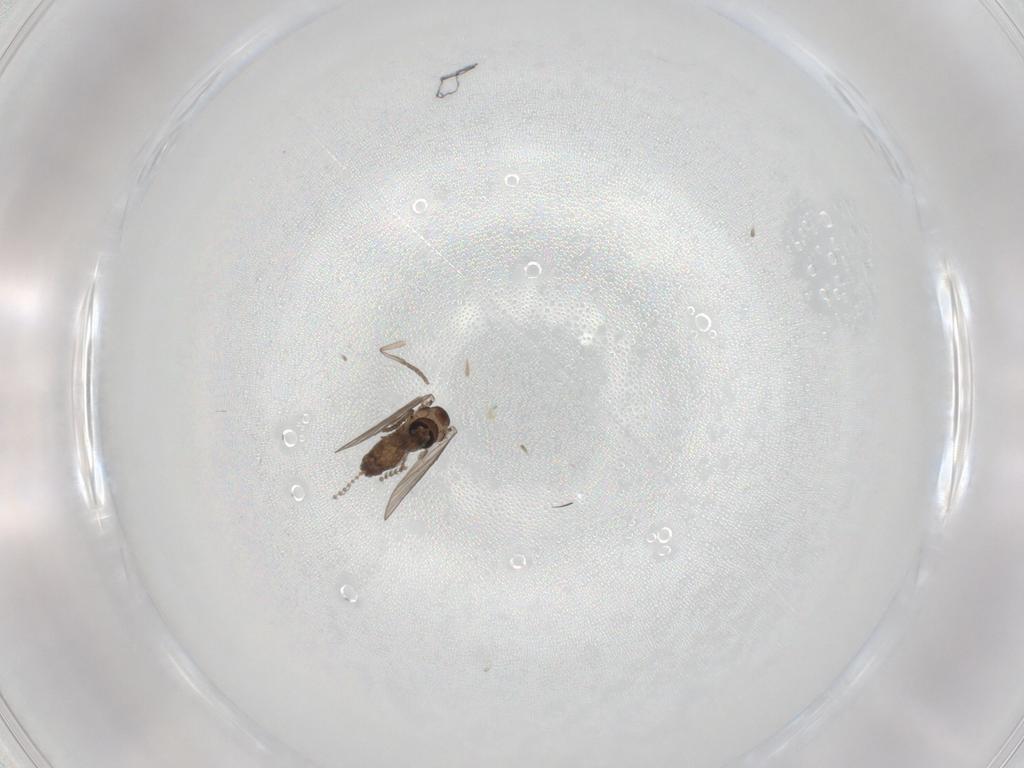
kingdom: Animalia
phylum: Arthropoda
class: Insecta
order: Diptera
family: Psychodidae
